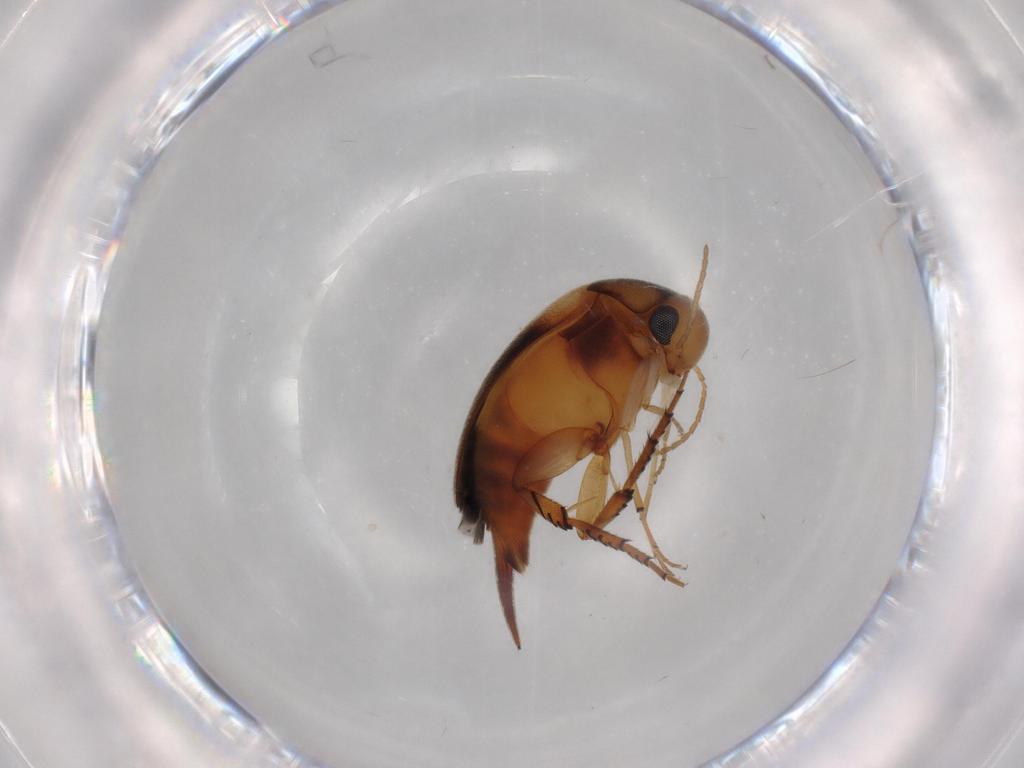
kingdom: Animalia
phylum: Arthropoda
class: Insecta
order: Coleoptera
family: Mordellidae
